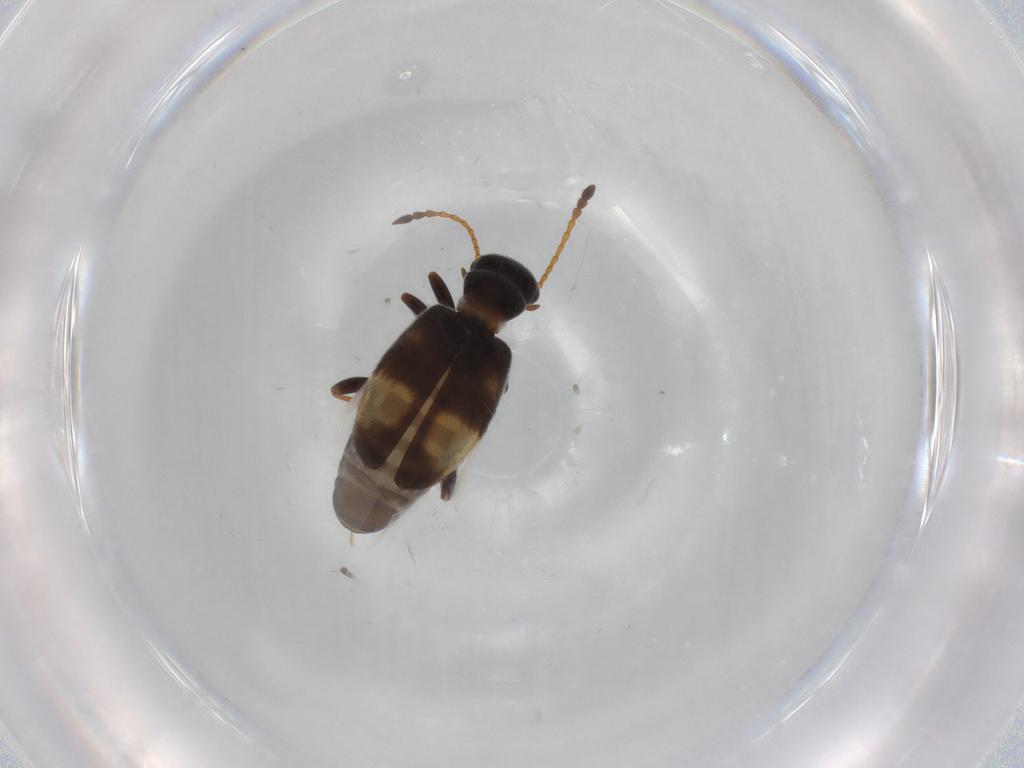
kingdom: Animalia
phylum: Arthropoda
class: Insecta
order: Coleoptera
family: Anthicidae
